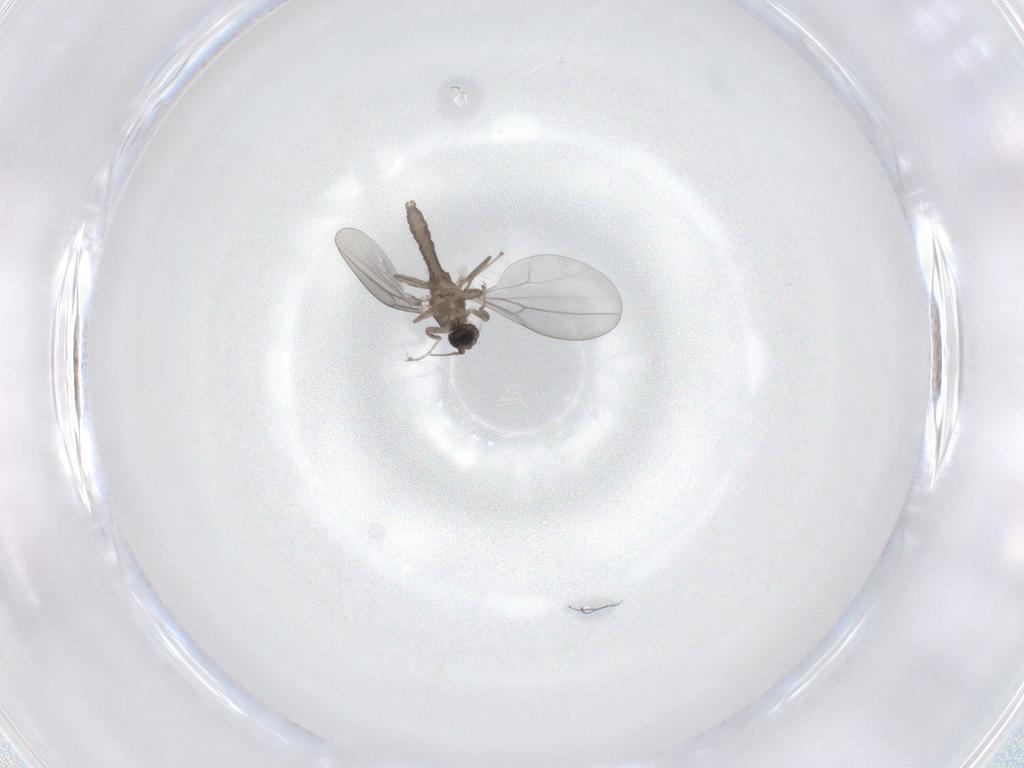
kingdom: Animalia
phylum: Arthropoda
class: Insecta
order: Diptera
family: Cecidomyiidae
